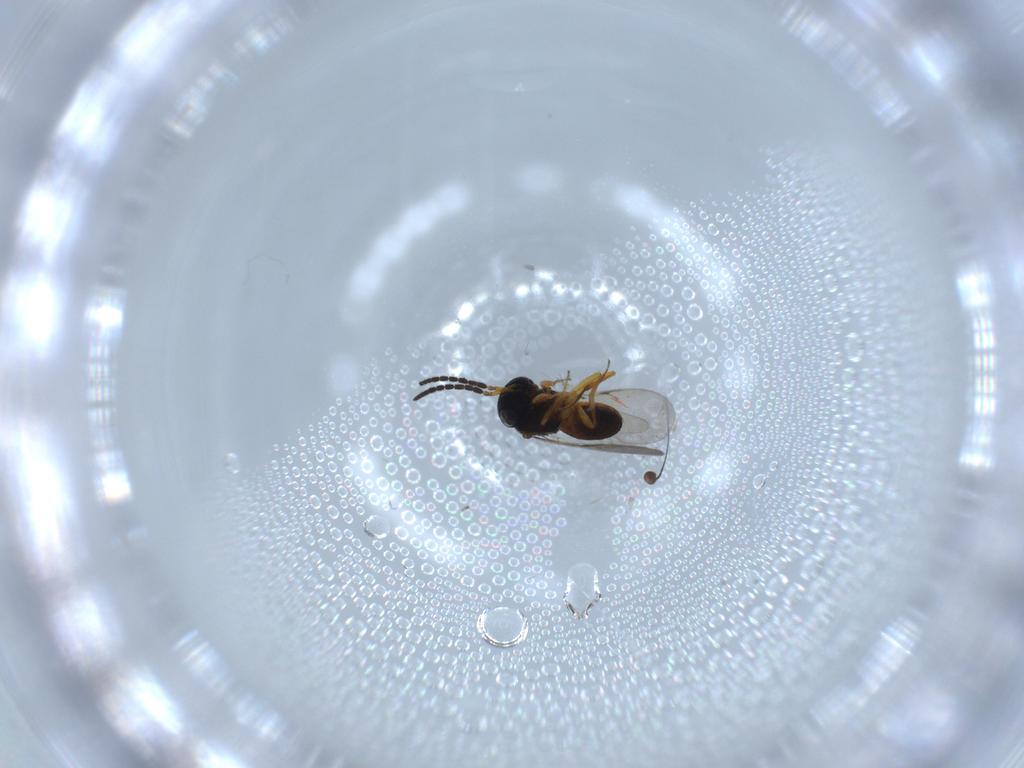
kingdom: Animalia
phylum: Arthropoda
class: Insecta
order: Hymenoptera
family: Scelionidae
